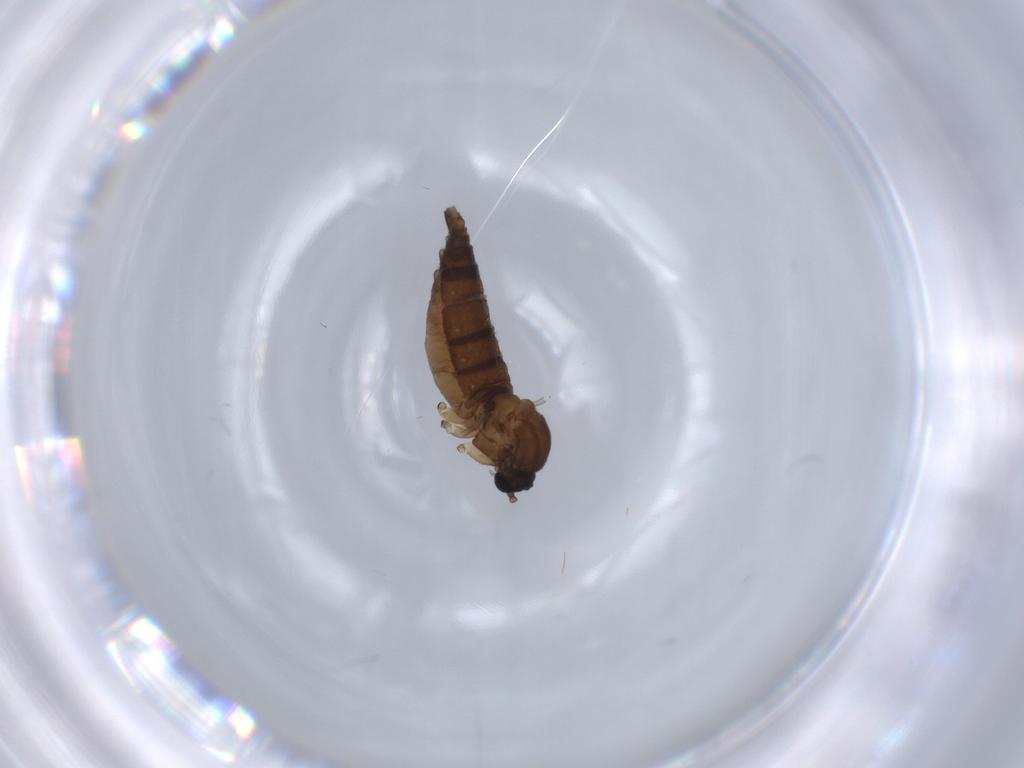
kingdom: Animalia
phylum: Arthropoda
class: Insecta
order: Diptera
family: Sciaridae
